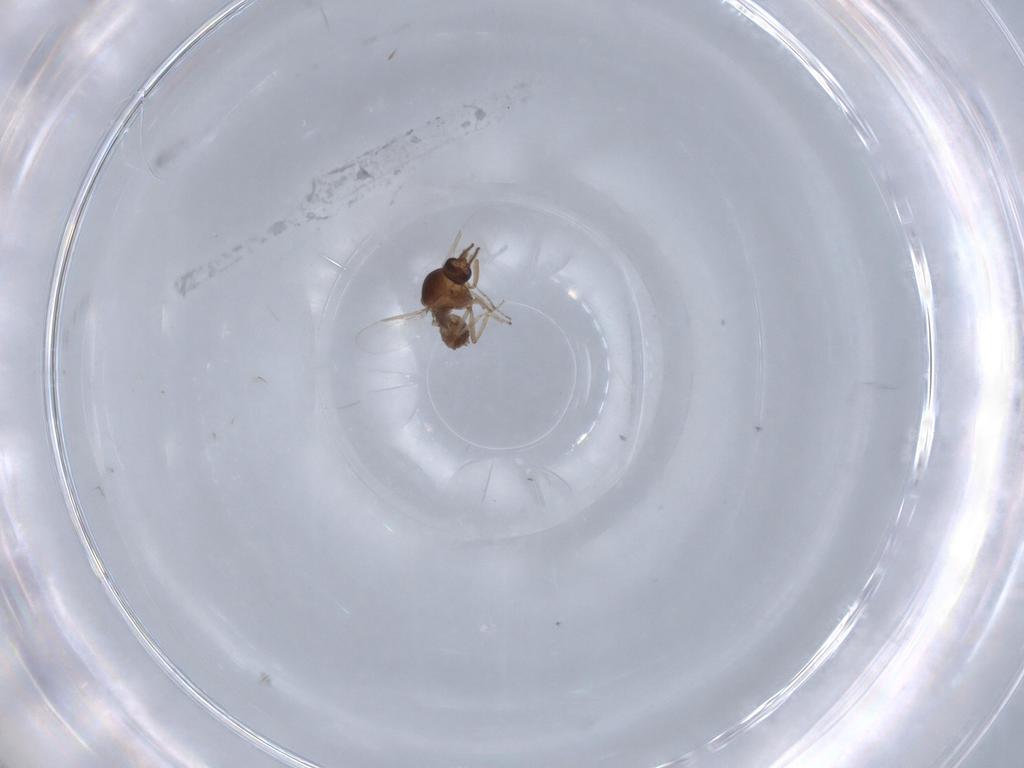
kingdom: Animalia
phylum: Arthropoda
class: Insecta
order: Diptera
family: Ceratopogonidae
